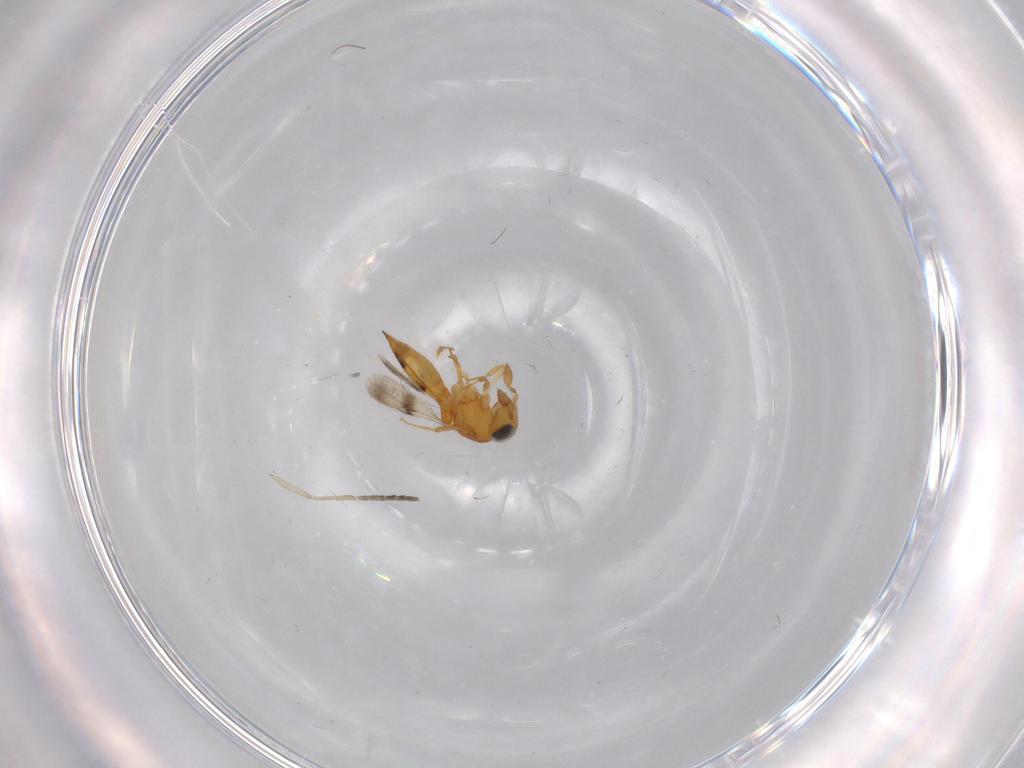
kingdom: Animalia
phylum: Arthropoda
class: Insecta
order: Hymenoptera
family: Scelionidae
